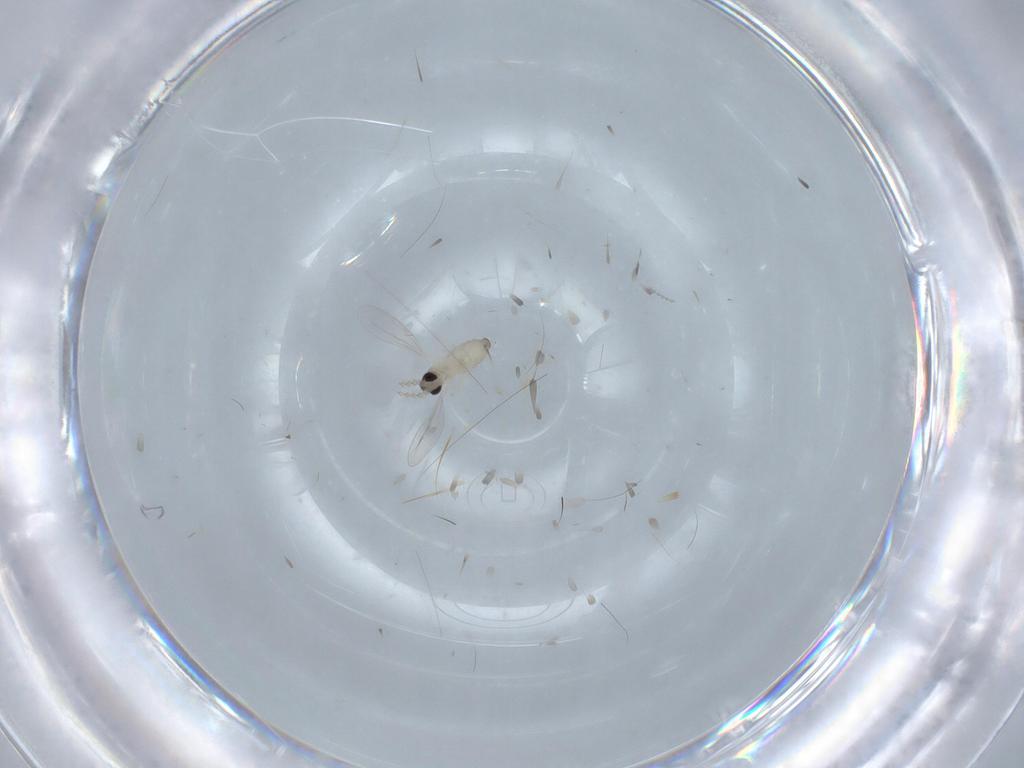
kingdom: Animalia
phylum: Arthropoda
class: Insecta
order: Diptera
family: Cecidomyiidae
